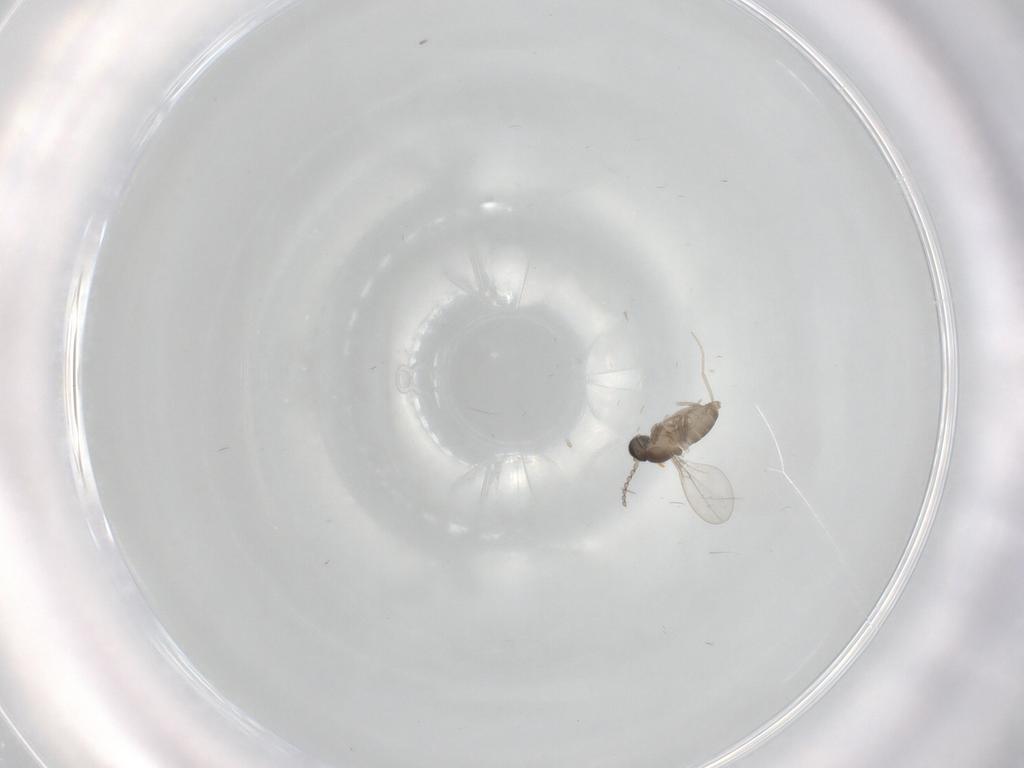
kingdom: Animalia
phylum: Arthropoda
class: Insecta
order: Diptera
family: Cecidomyiidae
